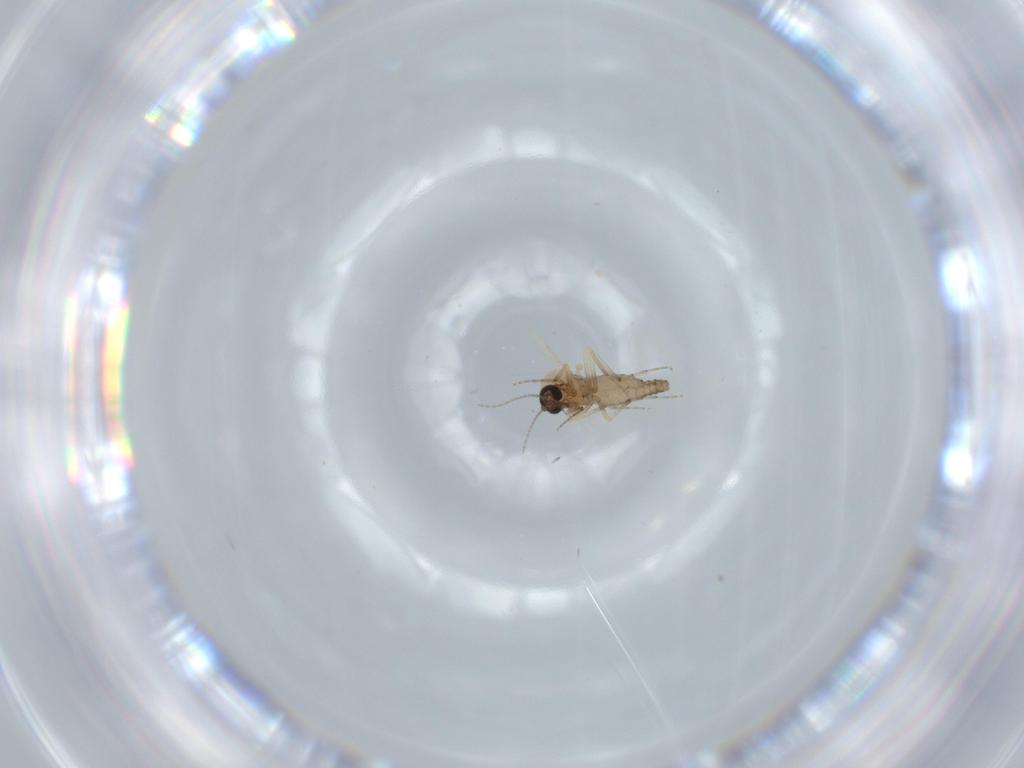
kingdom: Animalia
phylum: Arthropoda
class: Insecta
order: Diptera
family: Ceratopogonidae
